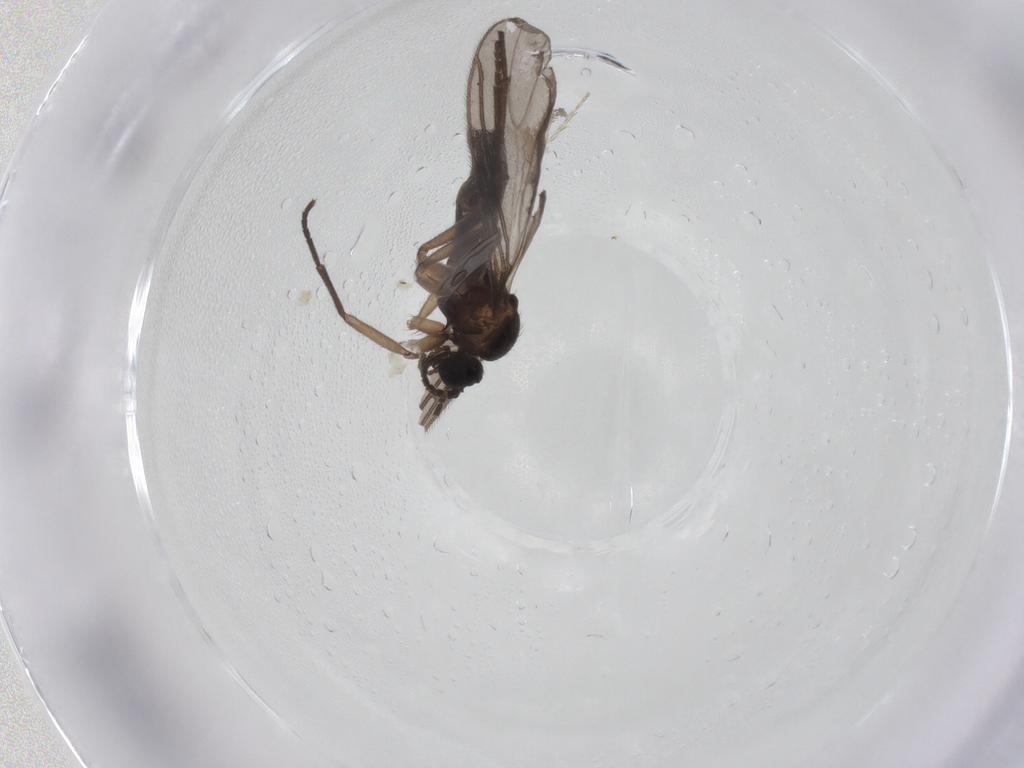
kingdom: Animalia
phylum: Arthropoda
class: Insecta
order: Diptera
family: Sciaridae
